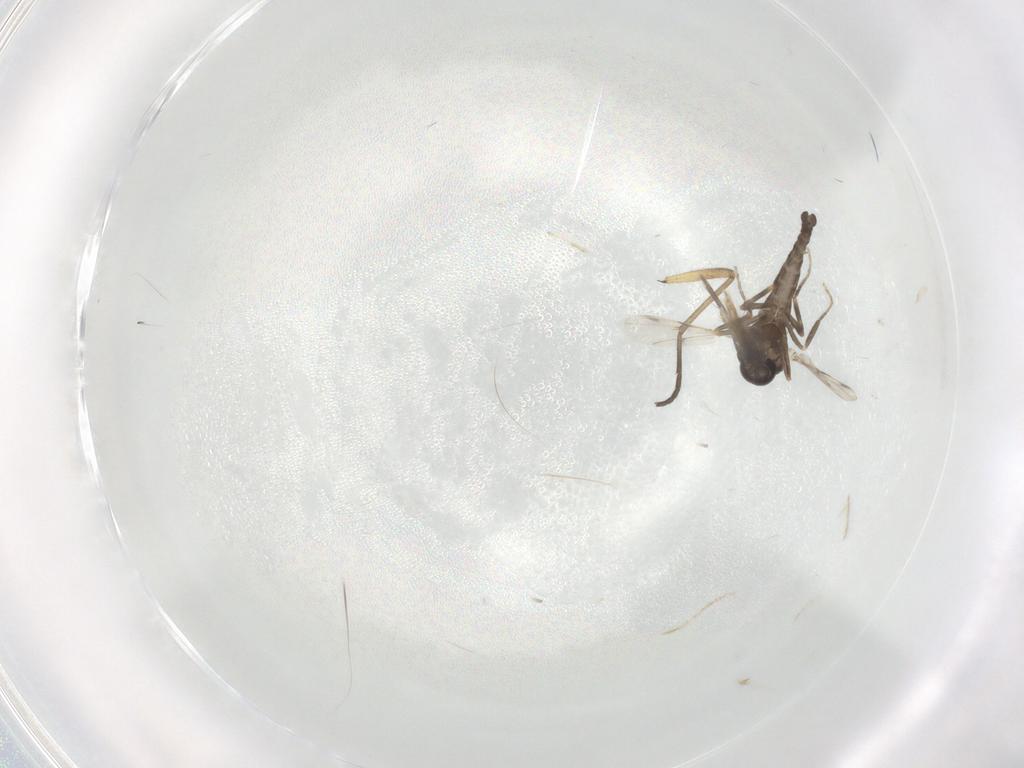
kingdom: Animalia
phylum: Arthropoda
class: Insecta
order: Diptera
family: Ceratopogonidae
